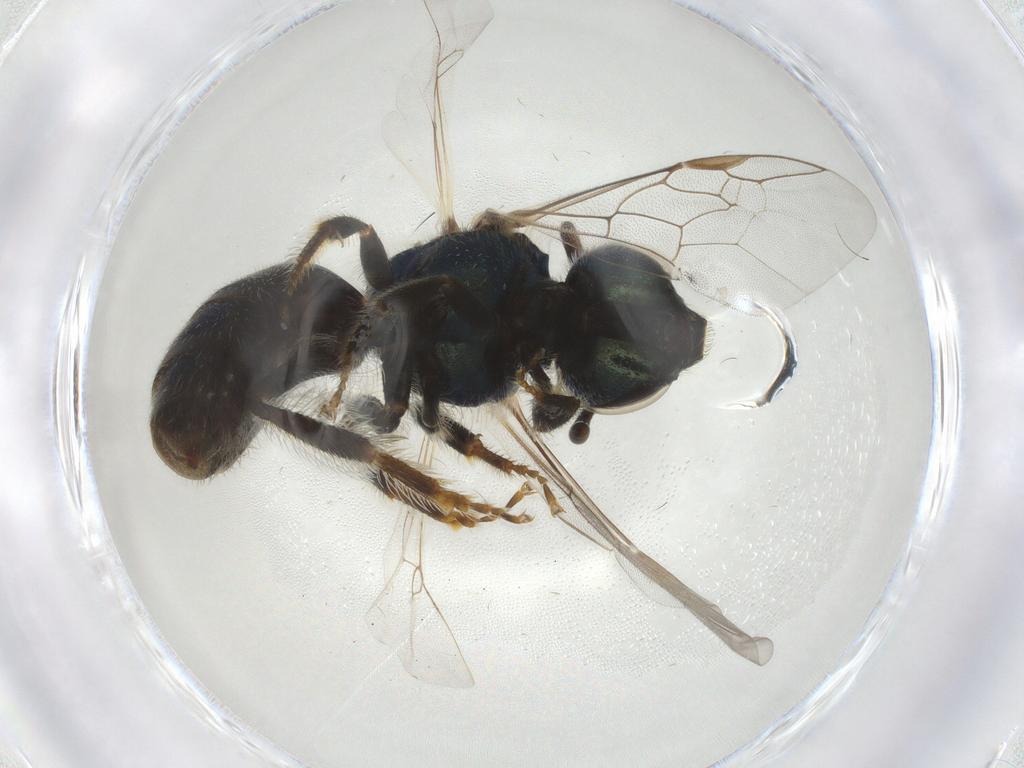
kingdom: Animalia
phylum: Arthropoda
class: Insecta
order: Hymenoptera
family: Halictidae
